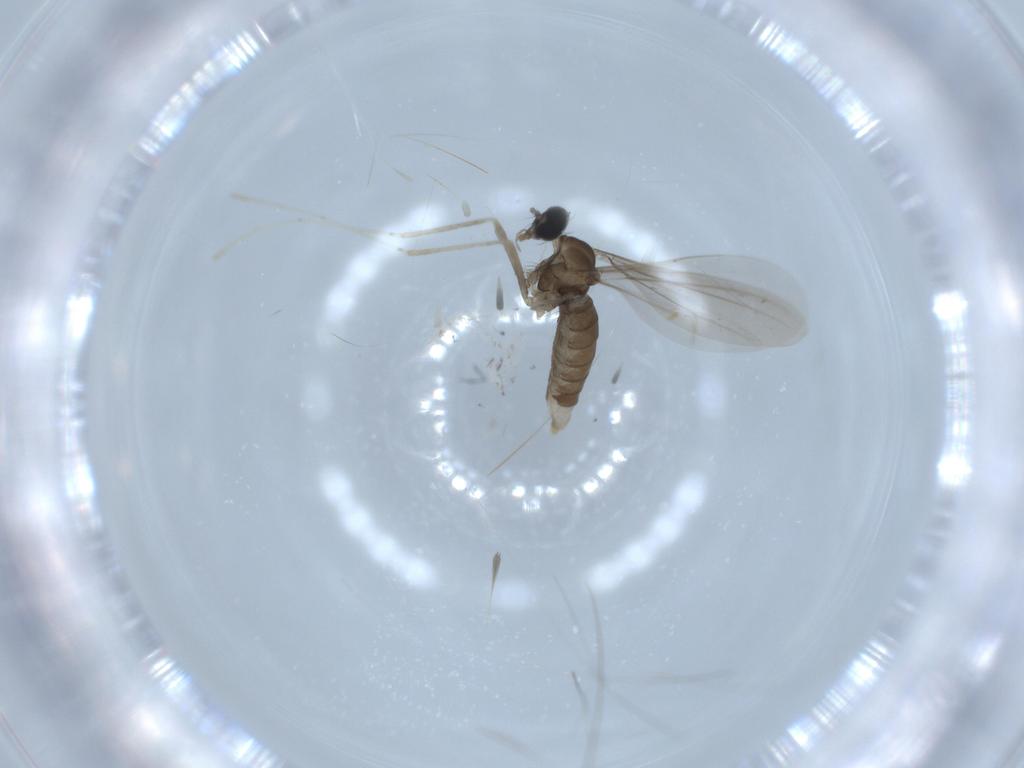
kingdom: Animalia
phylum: Arthropoda
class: Insecta
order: Diptera
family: Cecidomyiidae
